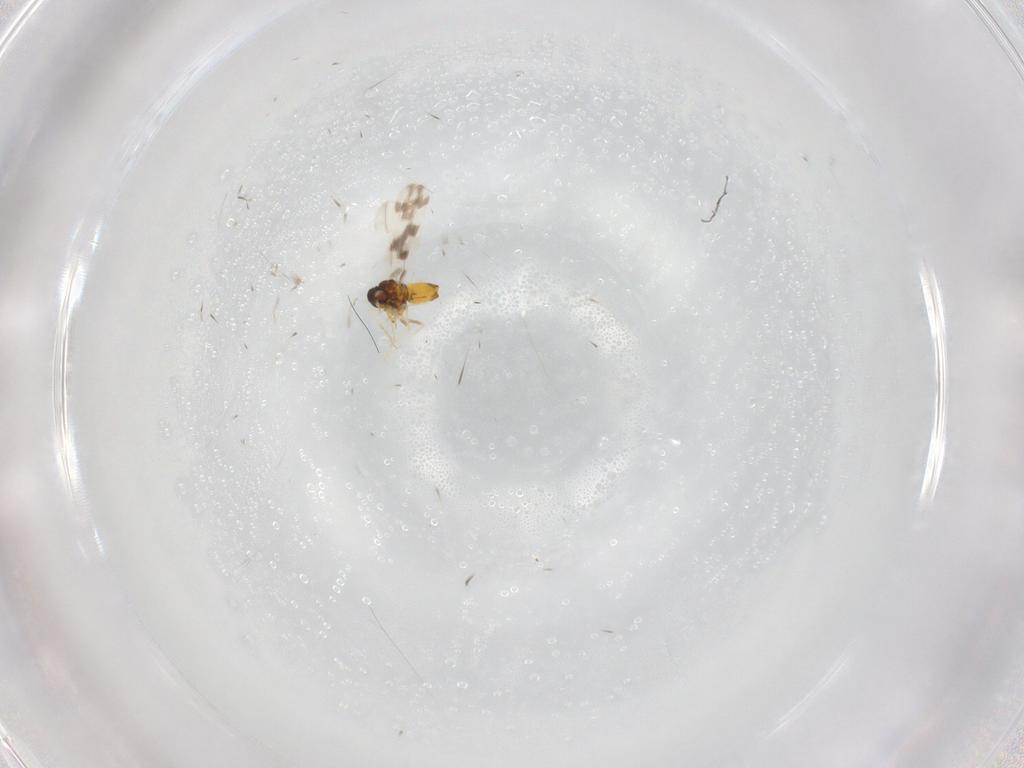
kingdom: Animalia
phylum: Arthropoda
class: Insecta
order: Hemiptera
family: Aleyrodidae
